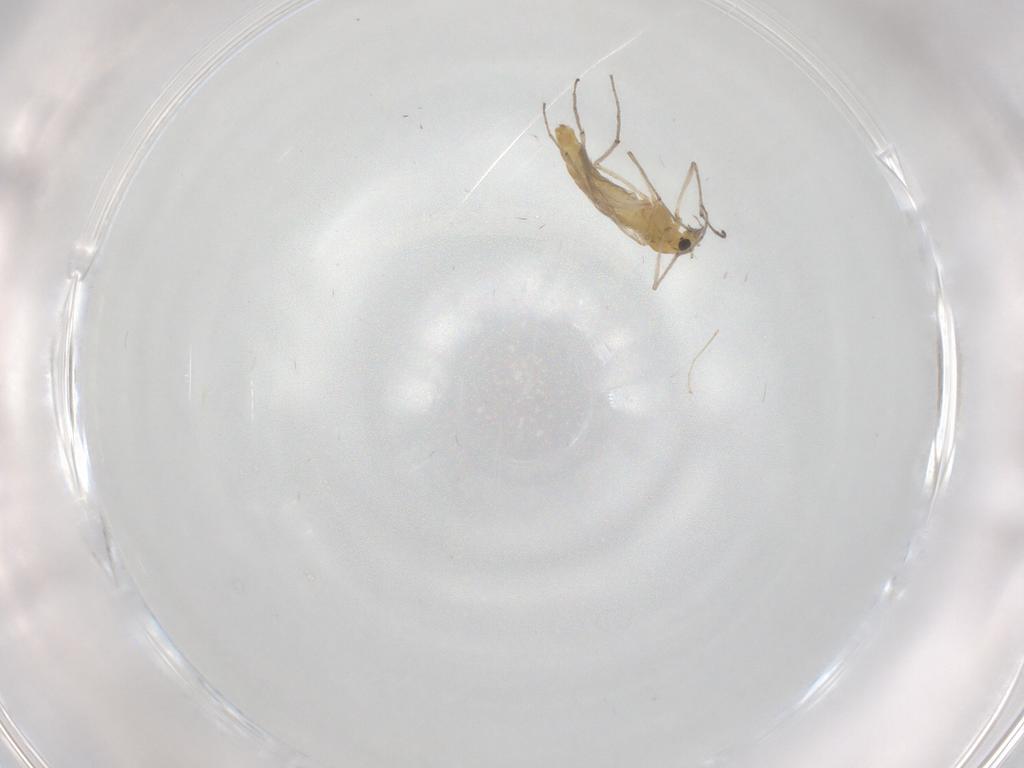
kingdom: Animalia
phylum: Arthropoda
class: Insecta
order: Diptera
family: Chironomidae
